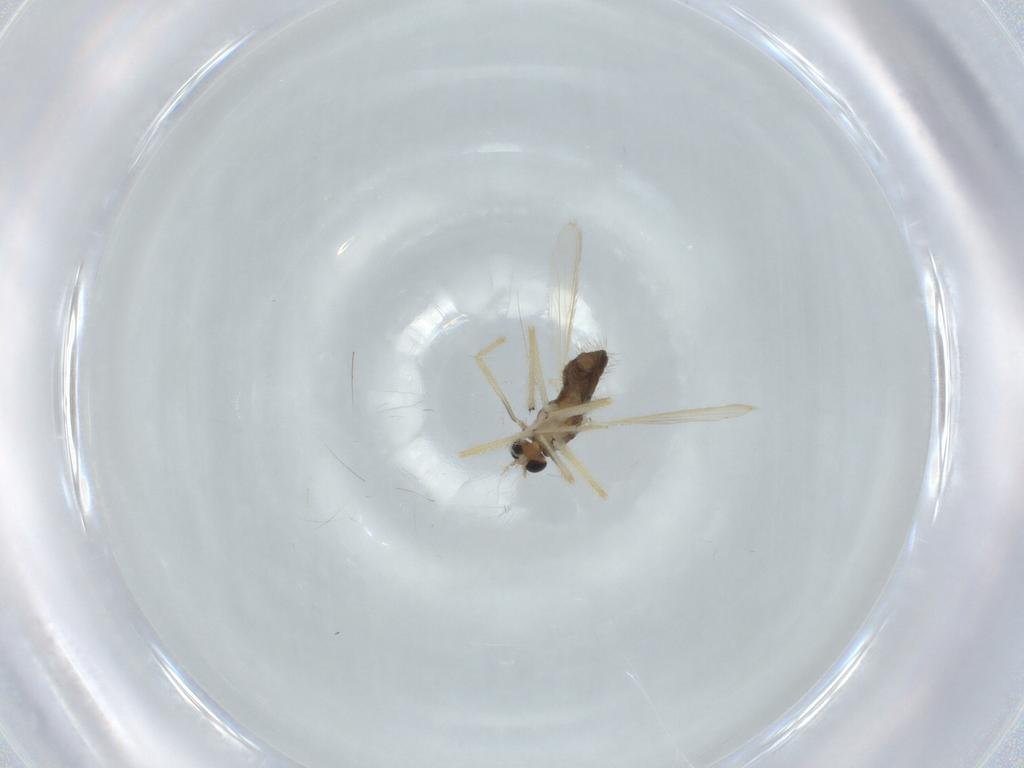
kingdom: Animalia
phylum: Arthropoda
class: Insecta
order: Diptera
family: Chironomidae
